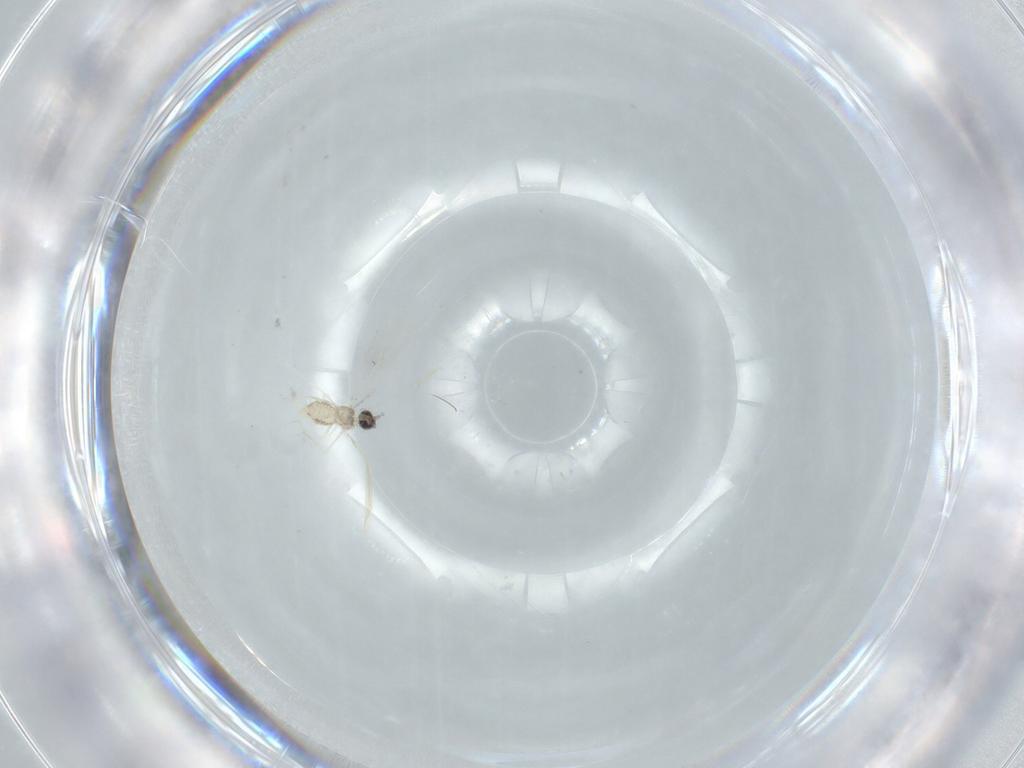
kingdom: Animalia
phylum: Arthropoda
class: Insecta
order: Diptera
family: Cecidomyiidae
